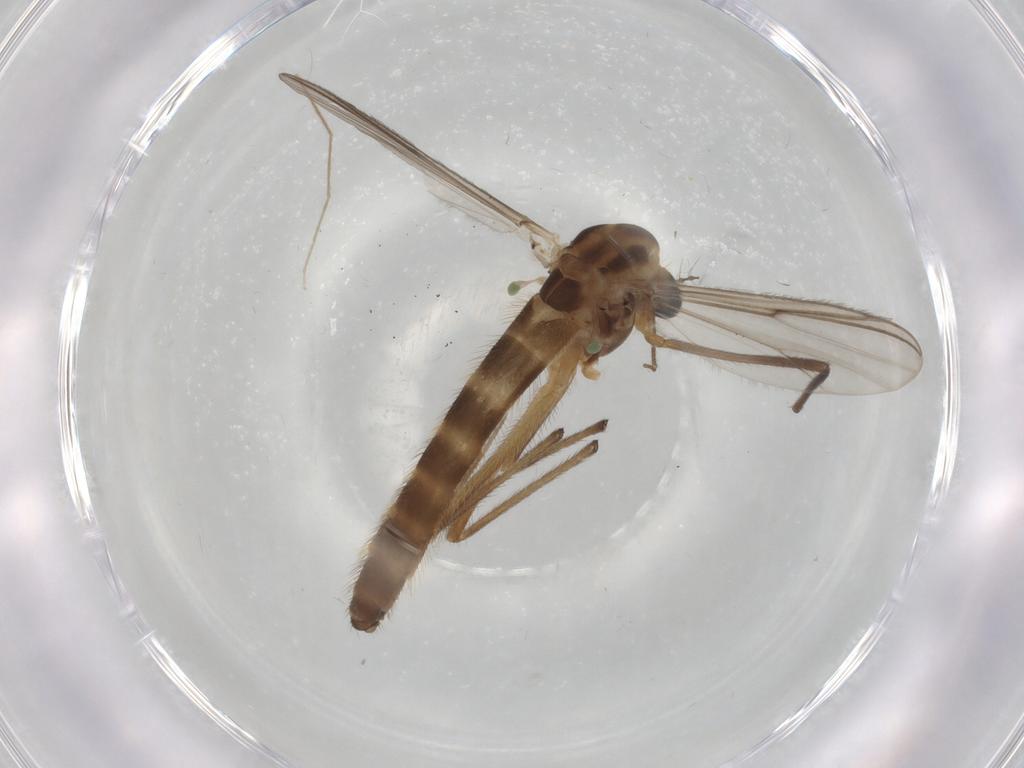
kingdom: Animalia
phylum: Arthropoda
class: Insecta
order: Diptera
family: Chironomidae
